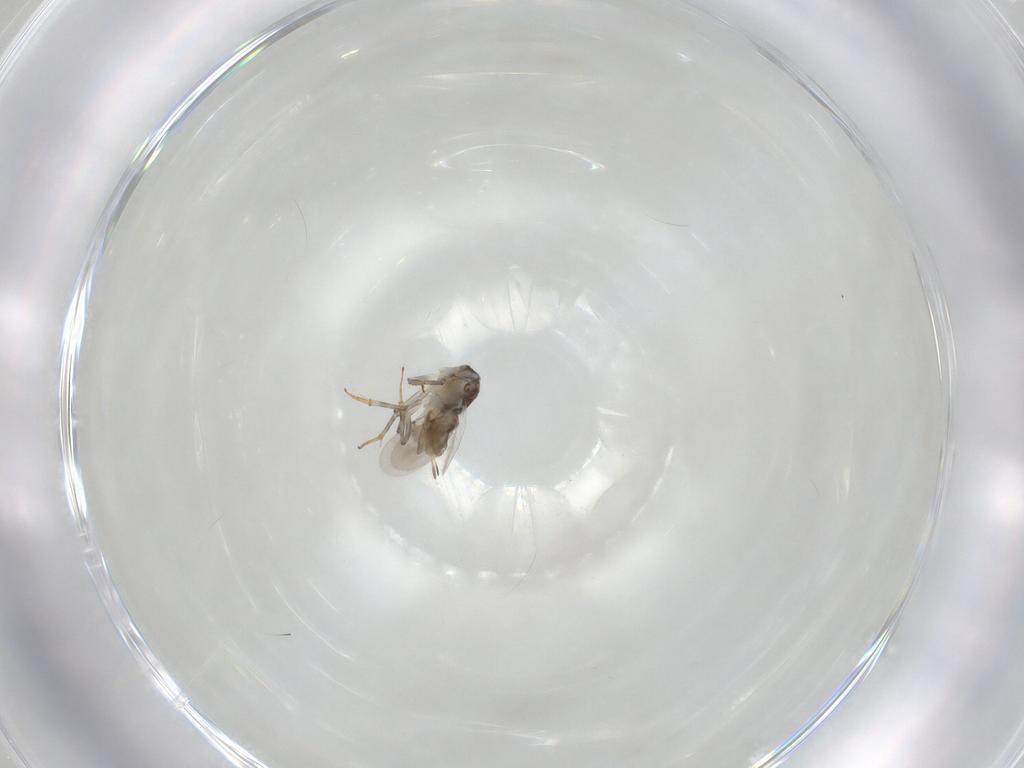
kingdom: Animalia
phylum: Arthropoda
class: Insecta
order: Hymenoptera
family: Encyrtidae
